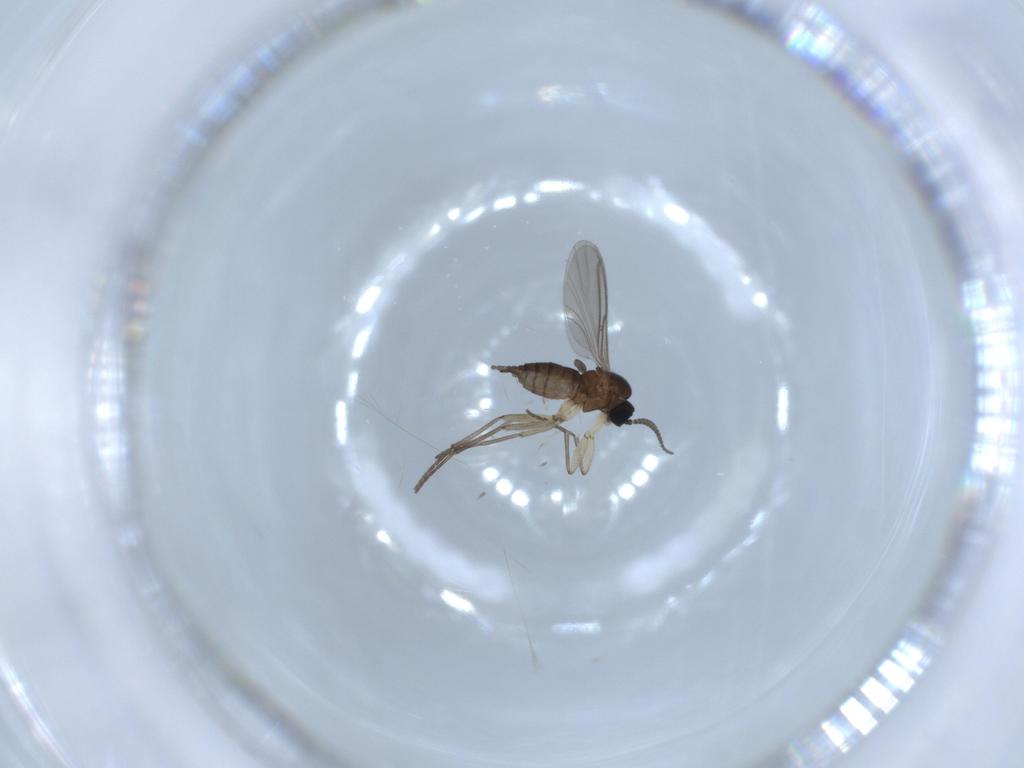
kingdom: Animalia
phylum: Arthropoda
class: Insecta
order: Diptera
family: Sciaridae
